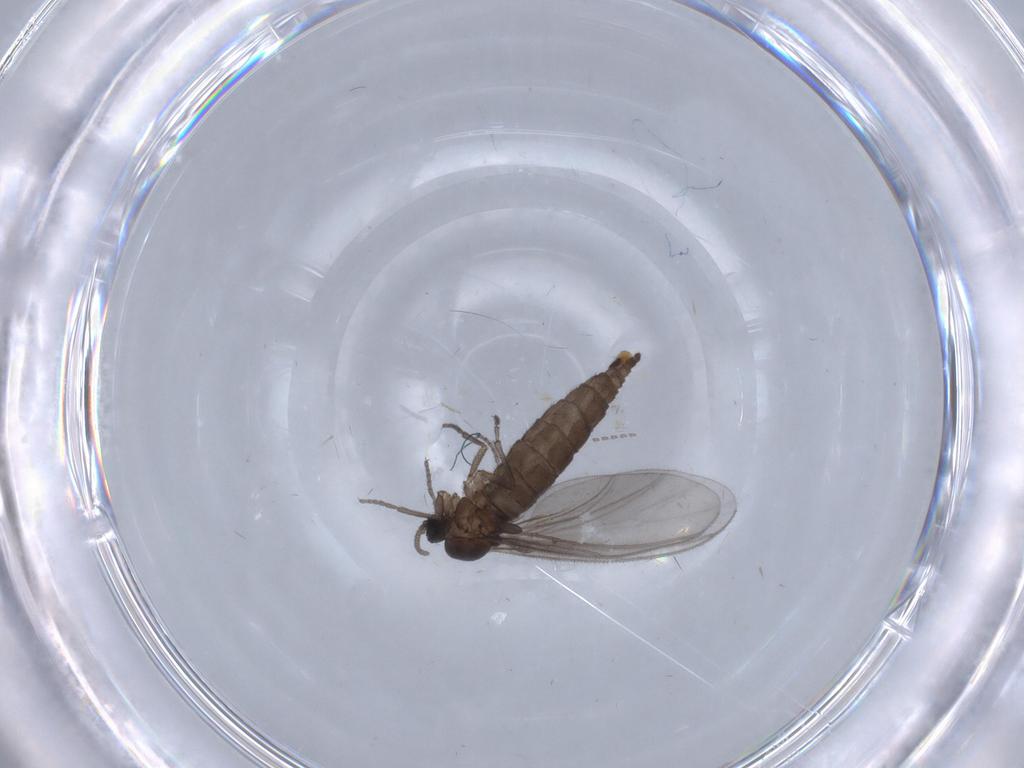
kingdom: Animalia
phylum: Arthropoda
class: Insecta
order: Diptera
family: Sciaridae
